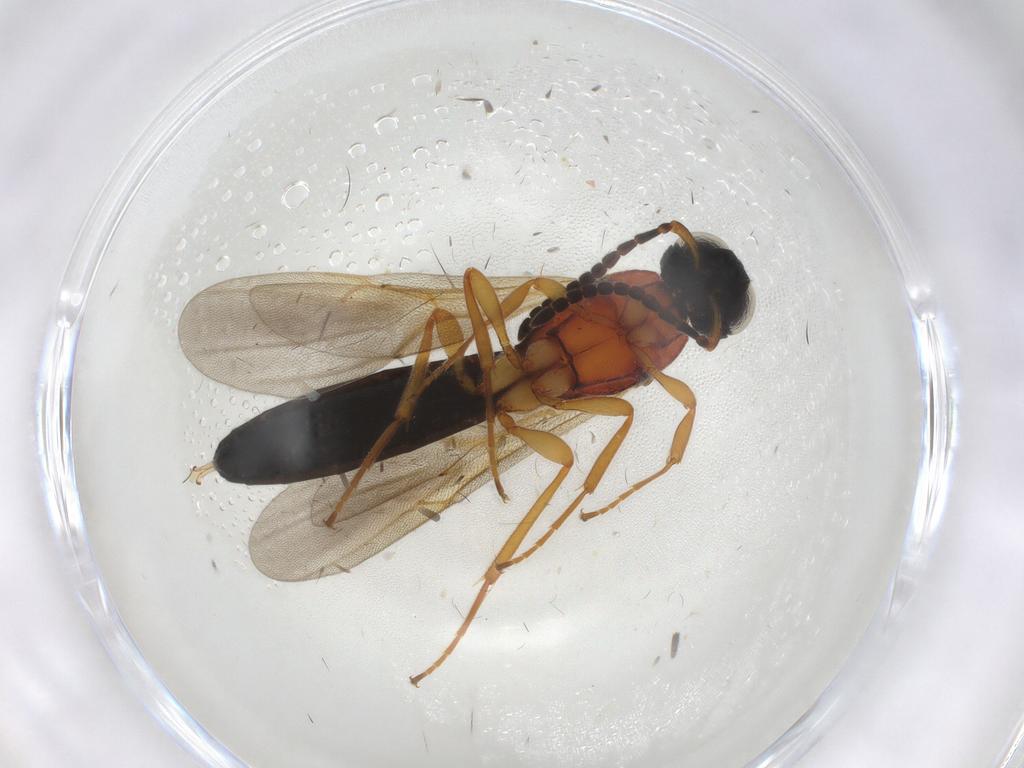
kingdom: Animalia
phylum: Arthropoda
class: Insecta
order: Hymenoptera
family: Scelionidae
